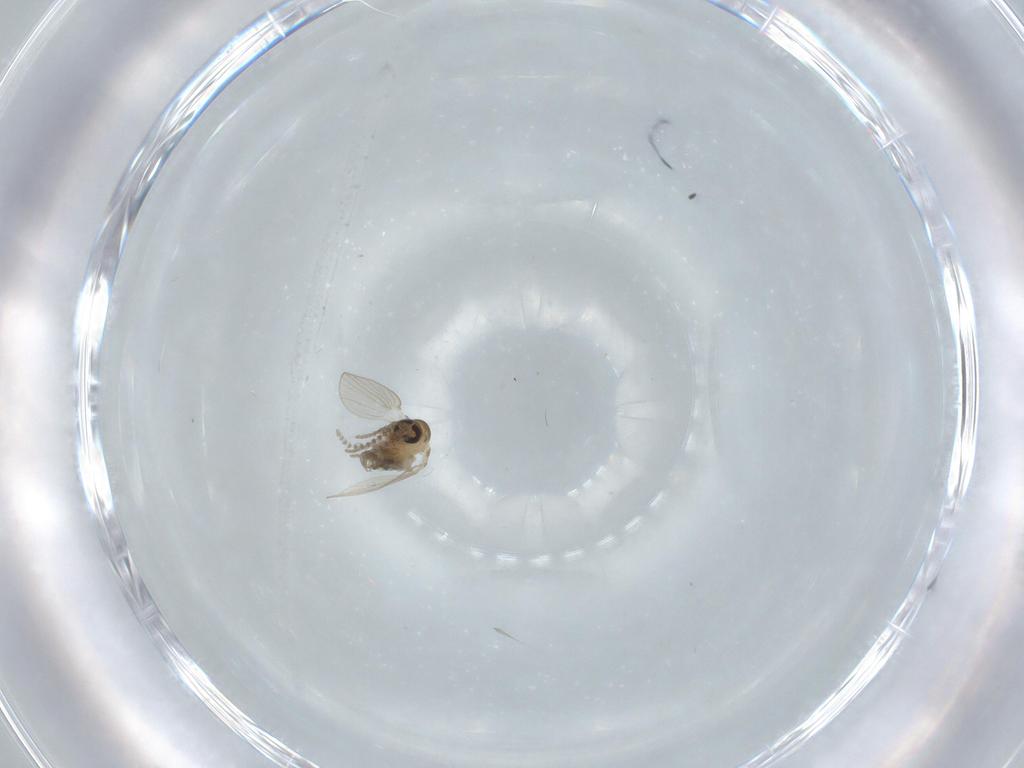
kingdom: Animalia
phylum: Arthropoda
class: Insecta
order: Diptera
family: Psychodidae
